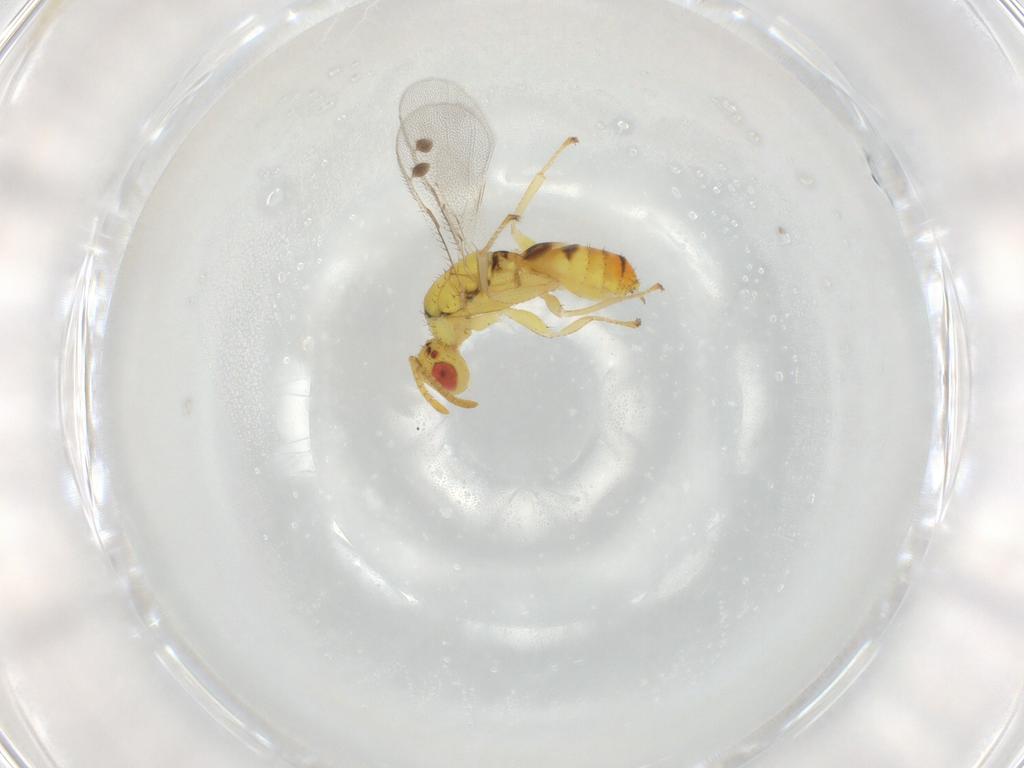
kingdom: Animalia
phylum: Arthropoda
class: Insecta
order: Hymenoptera
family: Megastigmidae
